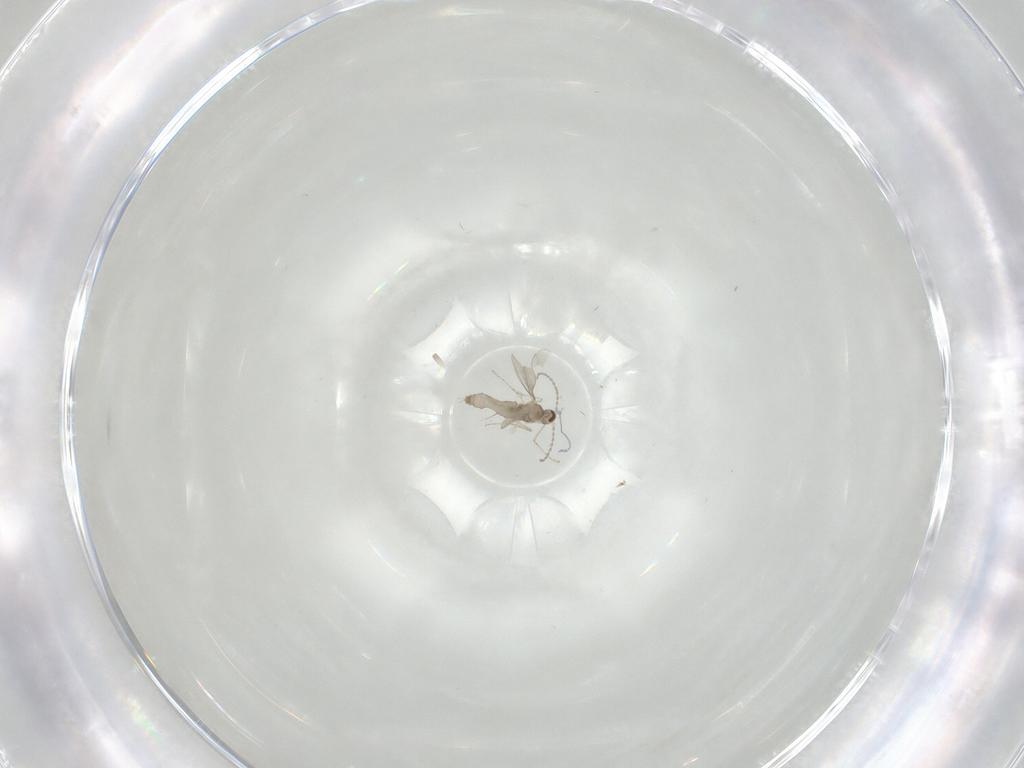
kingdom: Animalia
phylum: Arthropoda
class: Insecta
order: Diptera
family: Cecidomyiidae
